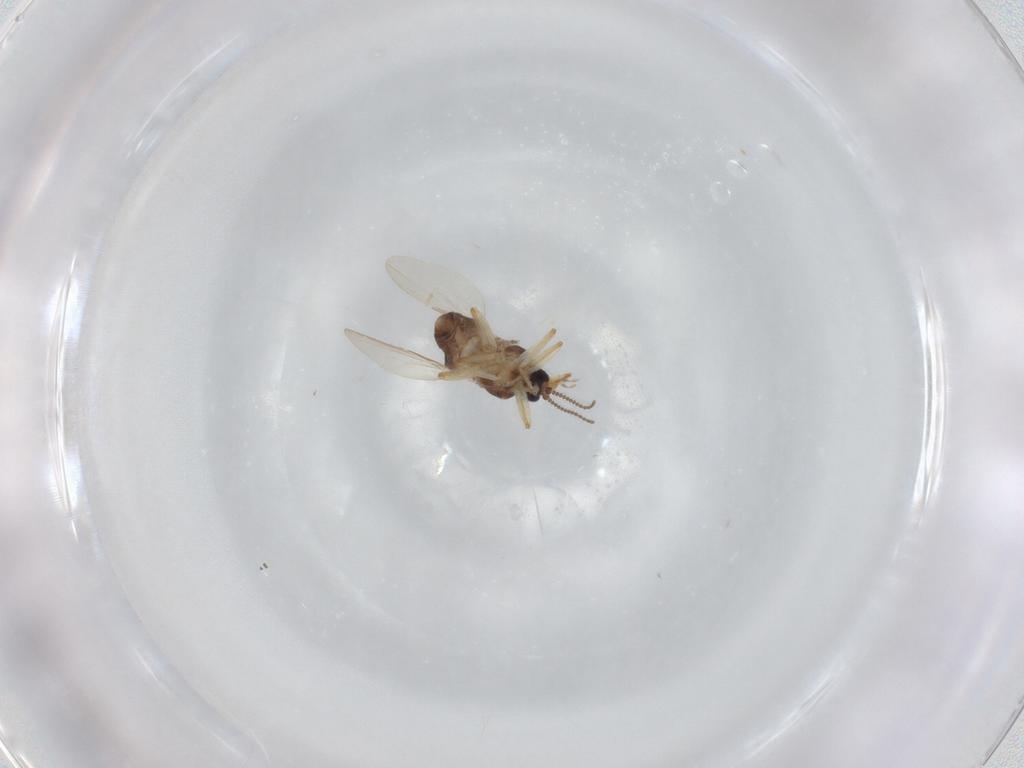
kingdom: Animalia
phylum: Arthropoda
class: Insecta
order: Diptera
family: Ceratopogonidae
